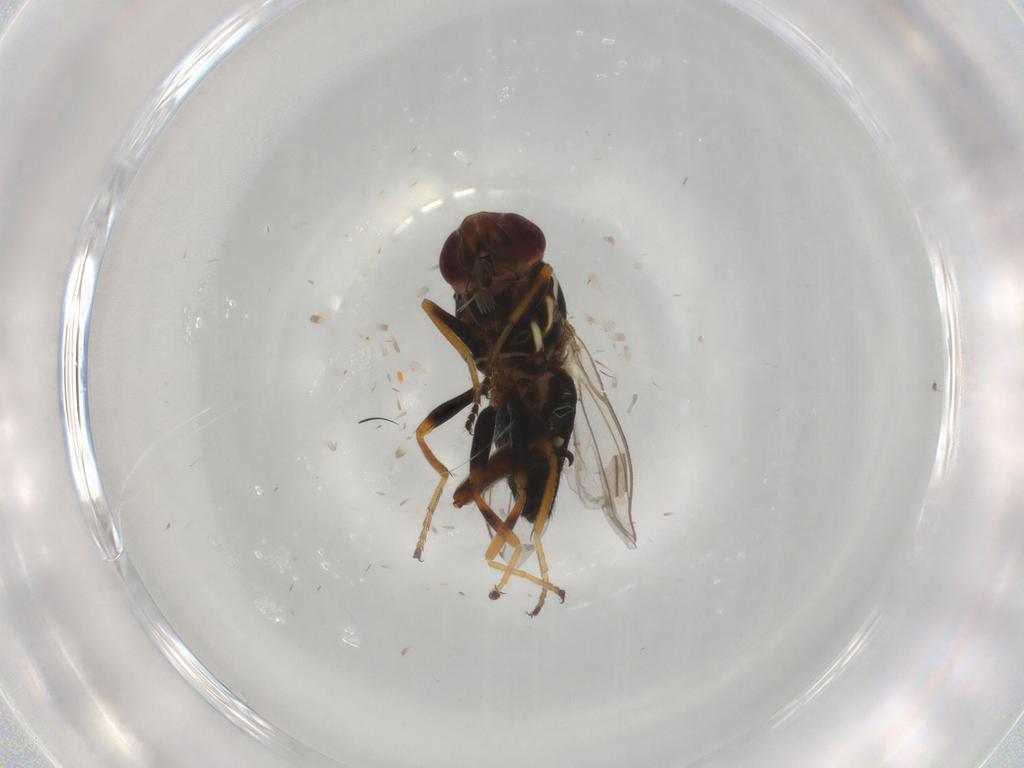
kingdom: Animalia
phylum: Arthropoda
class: Insecta
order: Diptera
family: Chloropidae
